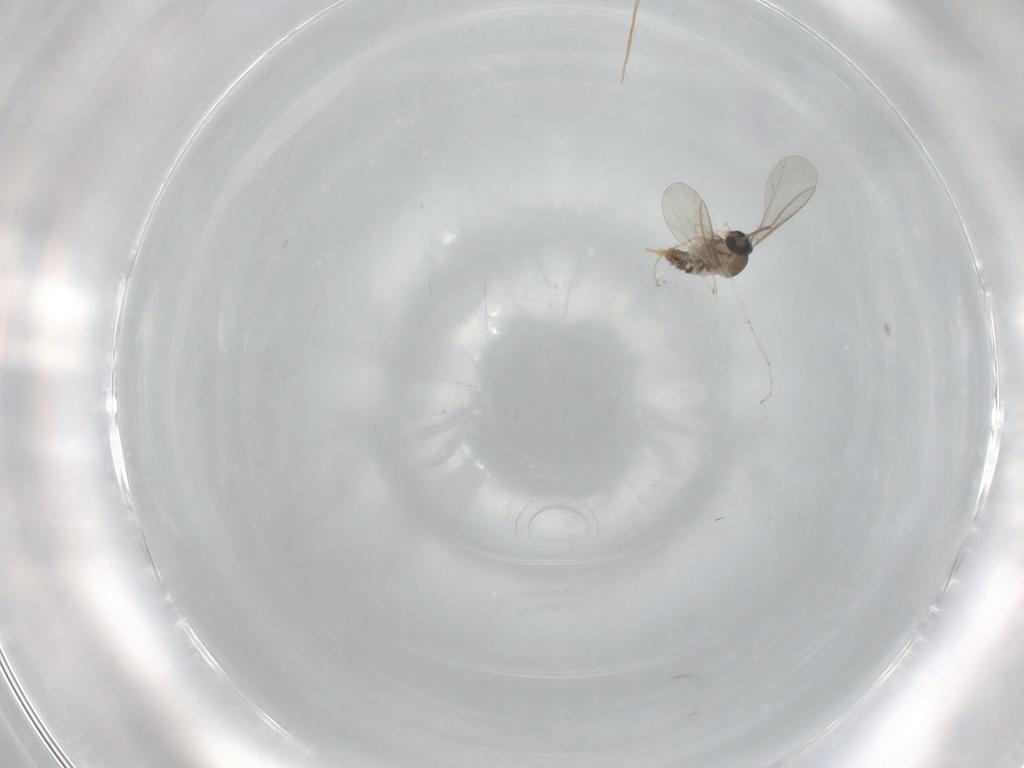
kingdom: Animalia
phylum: Arthropoda
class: Insecta
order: Diptera
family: Cecidomyiidae
